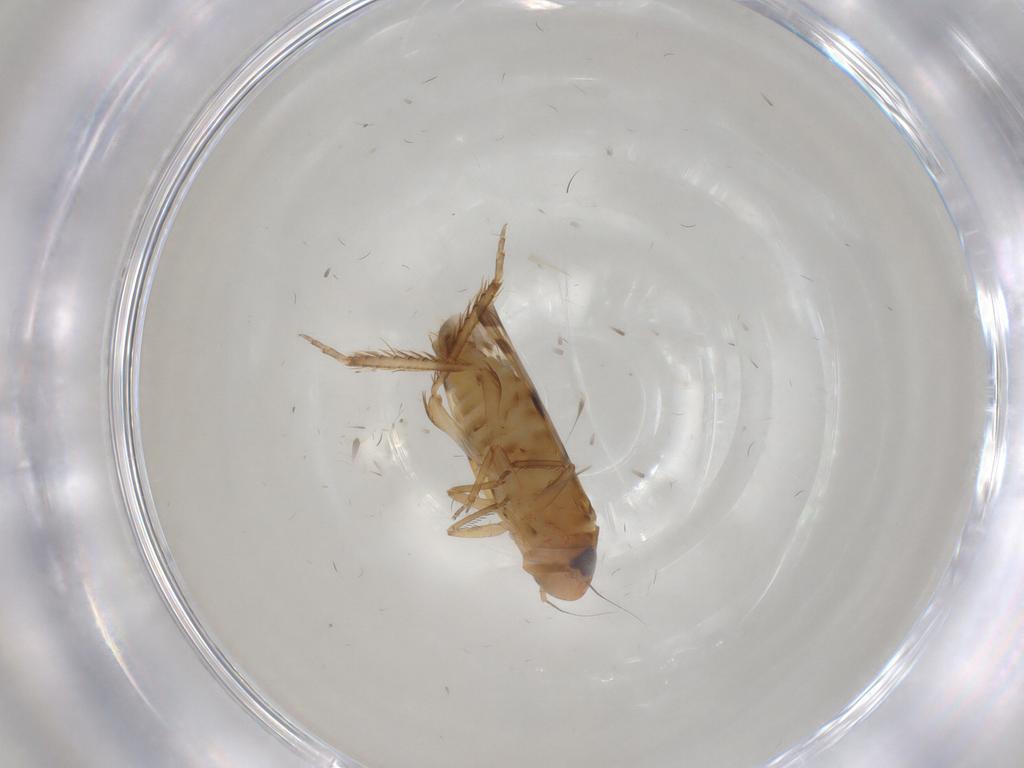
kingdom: Animalia
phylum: Arthropoda
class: Insecta
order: Hemiptera
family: Cicadellidae
